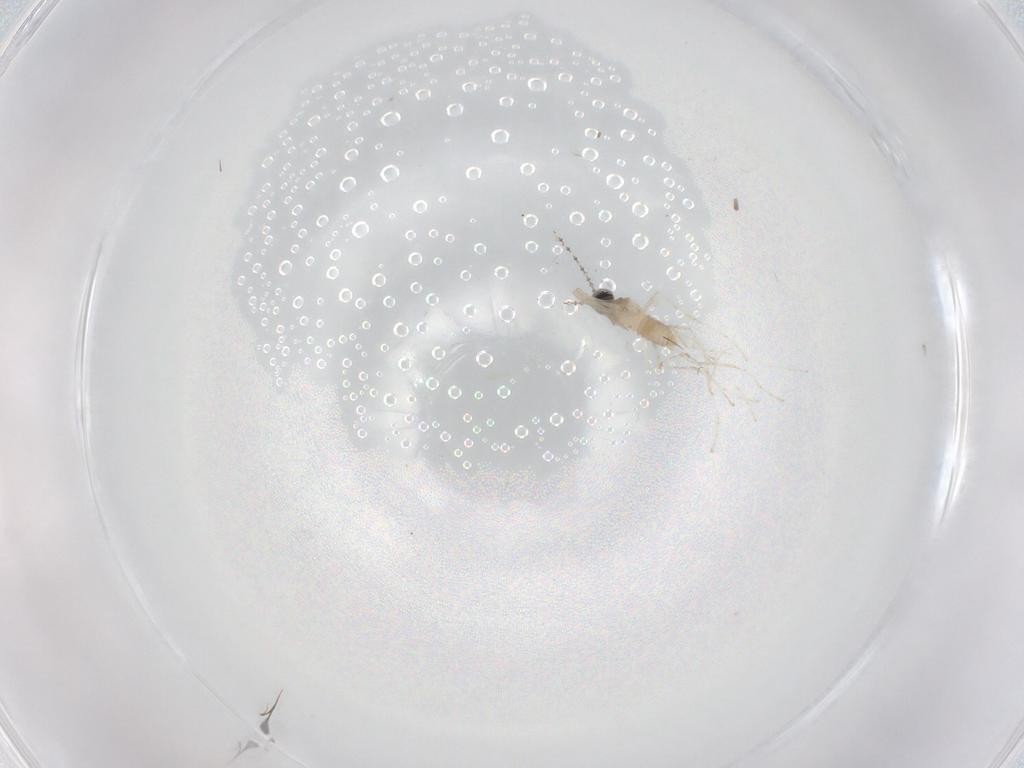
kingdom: Animalia
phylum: Arthropoda
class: Insecta
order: Diptera
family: Cecidomyiidae
